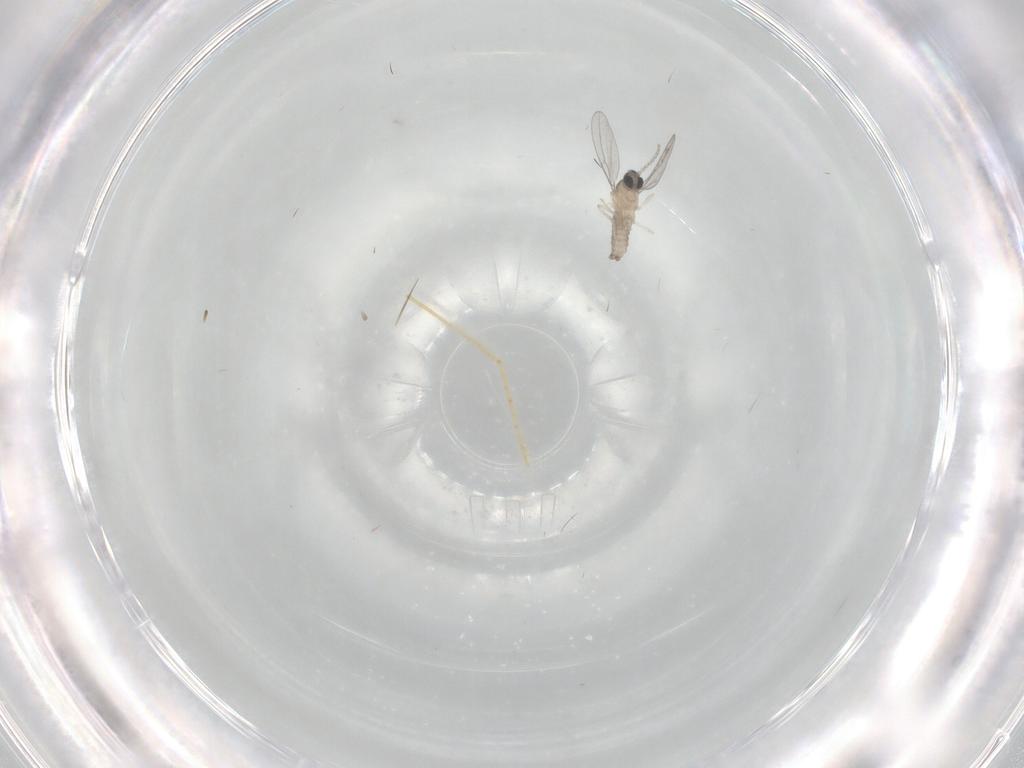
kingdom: Animalia
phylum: Arthropoda
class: Insecta
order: Diptera
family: Cecidomyiidae
